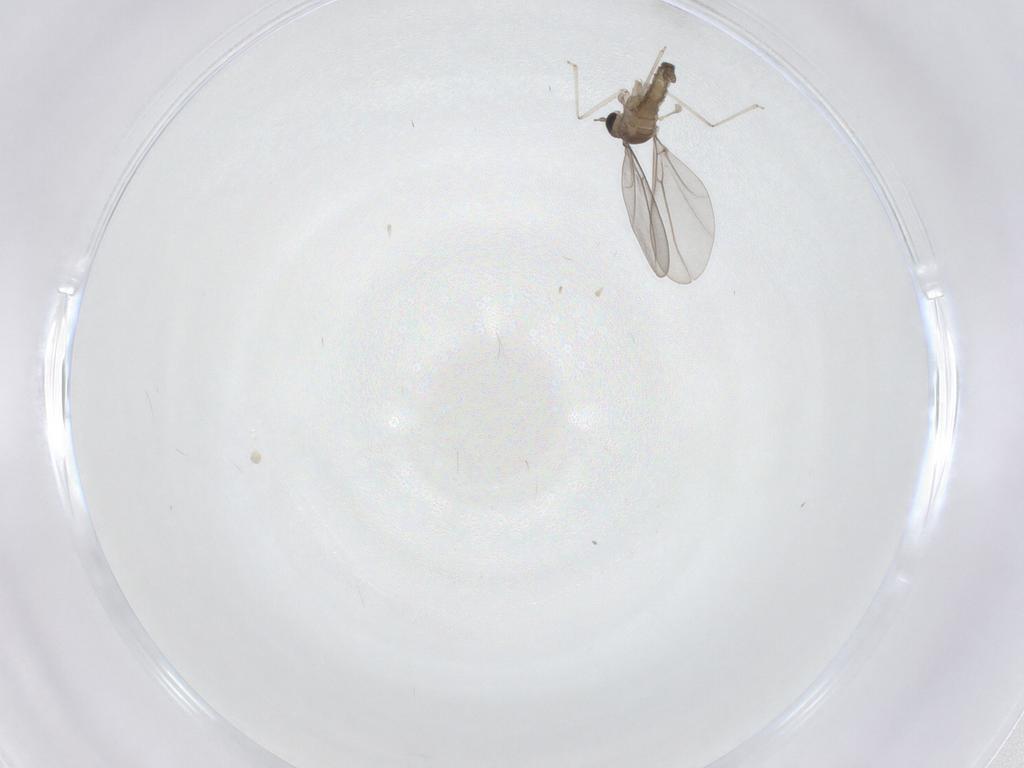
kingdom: Animalia
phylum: Arthropoda
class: Insecta
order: Diptera
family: Cecidomyiidae
